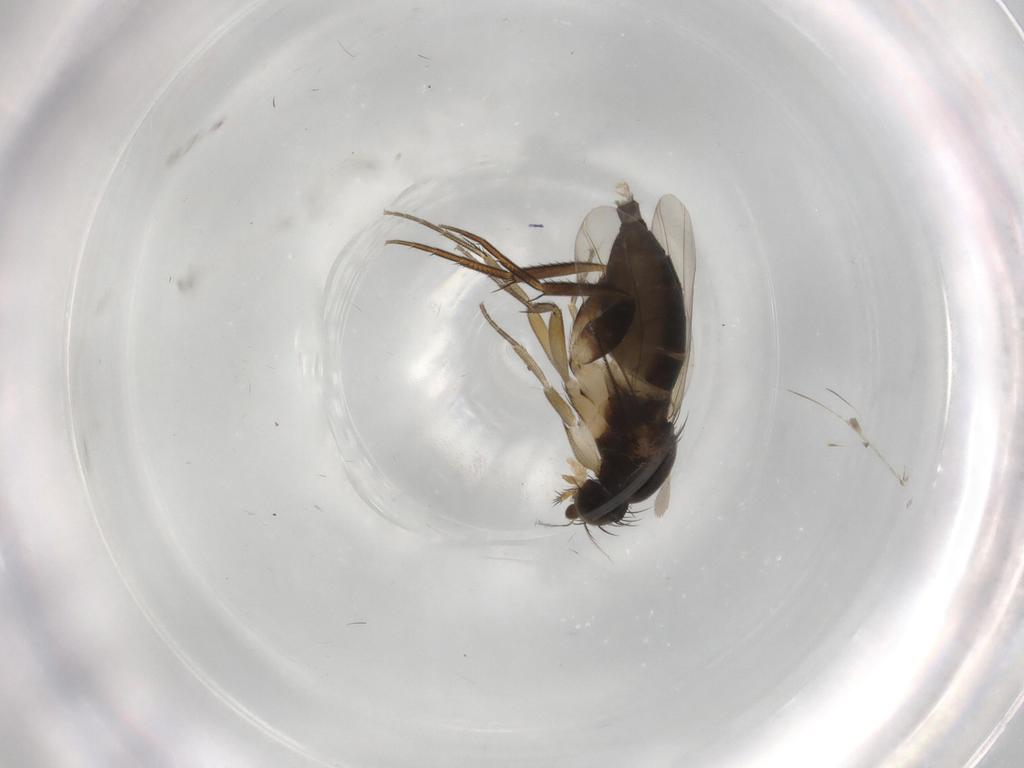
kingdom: Animalia
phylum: Arthropoda
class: Insecta
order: Diptera
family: Phoridae
